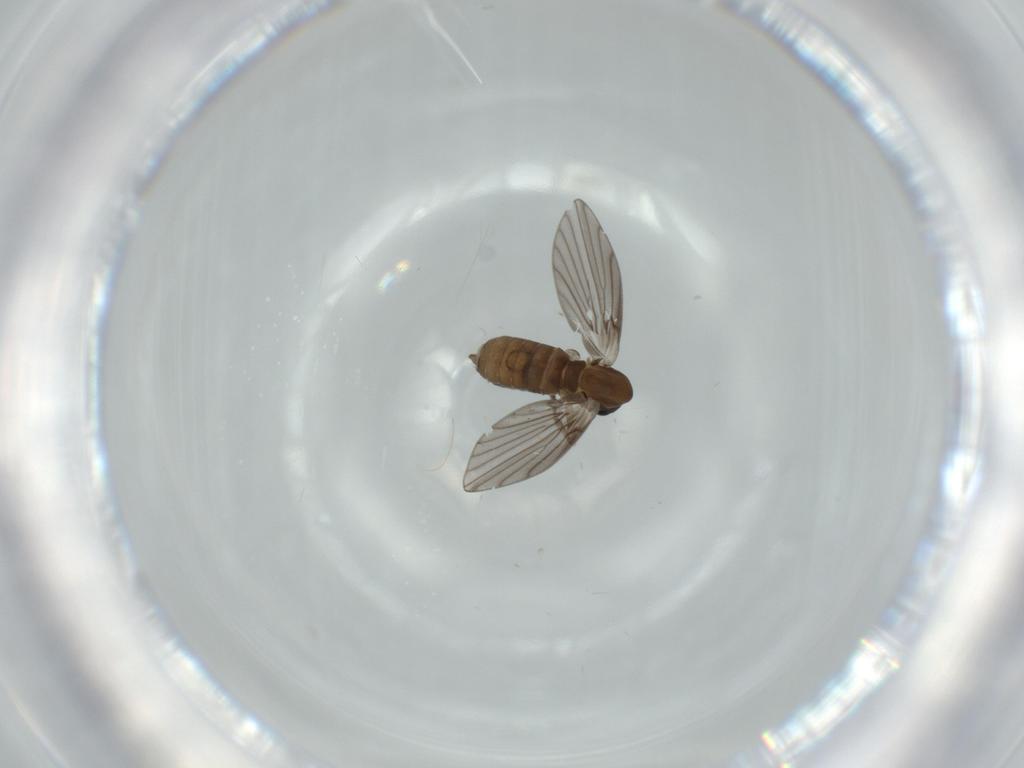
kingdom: Animalia
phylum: Arthropoda
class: Insecta
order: Diptera
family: Psychodidae
